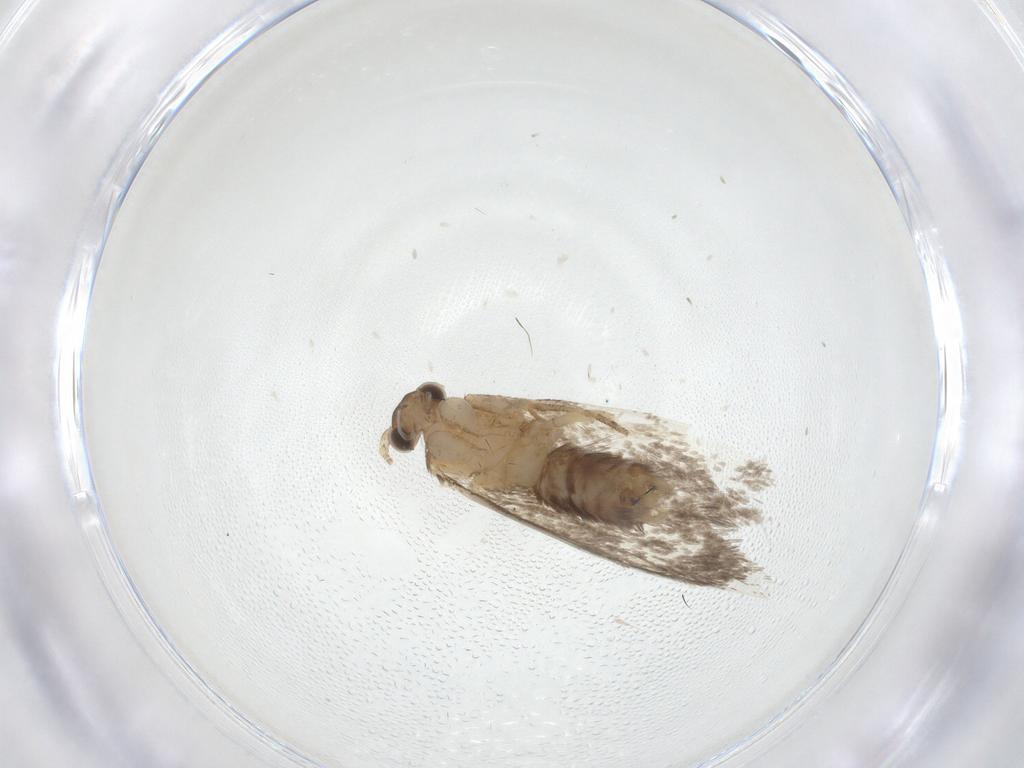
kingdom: Animalia
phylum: Arthropoda
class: Insecta
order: Lepidoptera
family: Dryadaulidae
